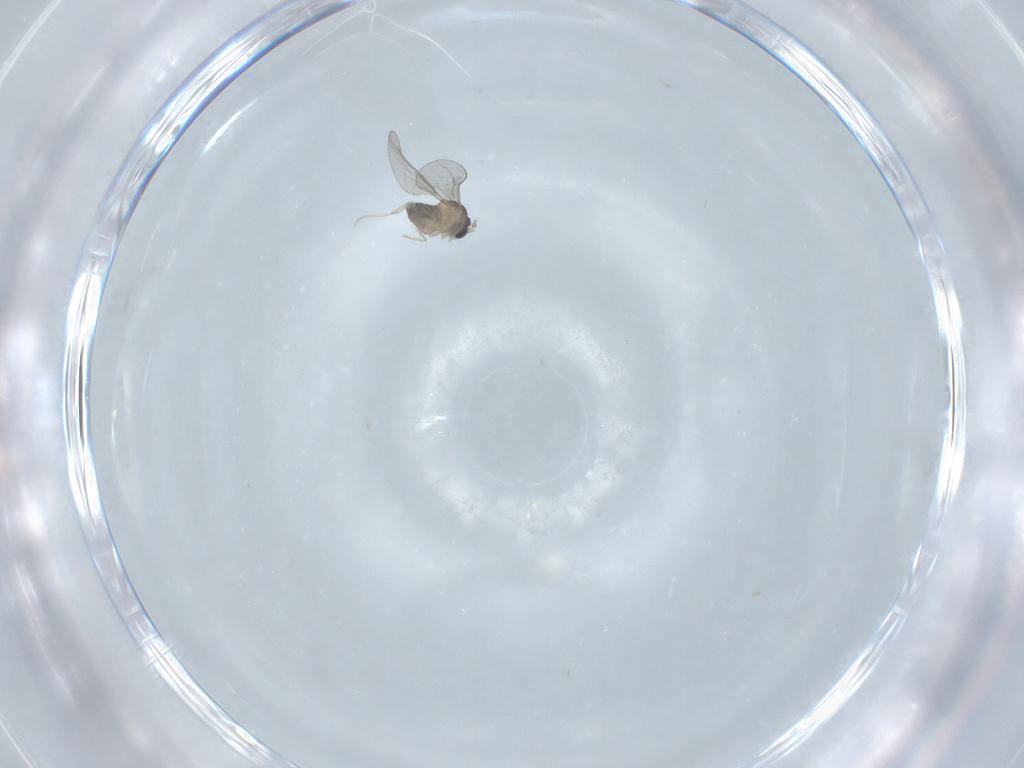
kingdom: Animalia
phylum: Arthropoda
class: Insecta
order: Diptera
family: Cecidomyiidae
